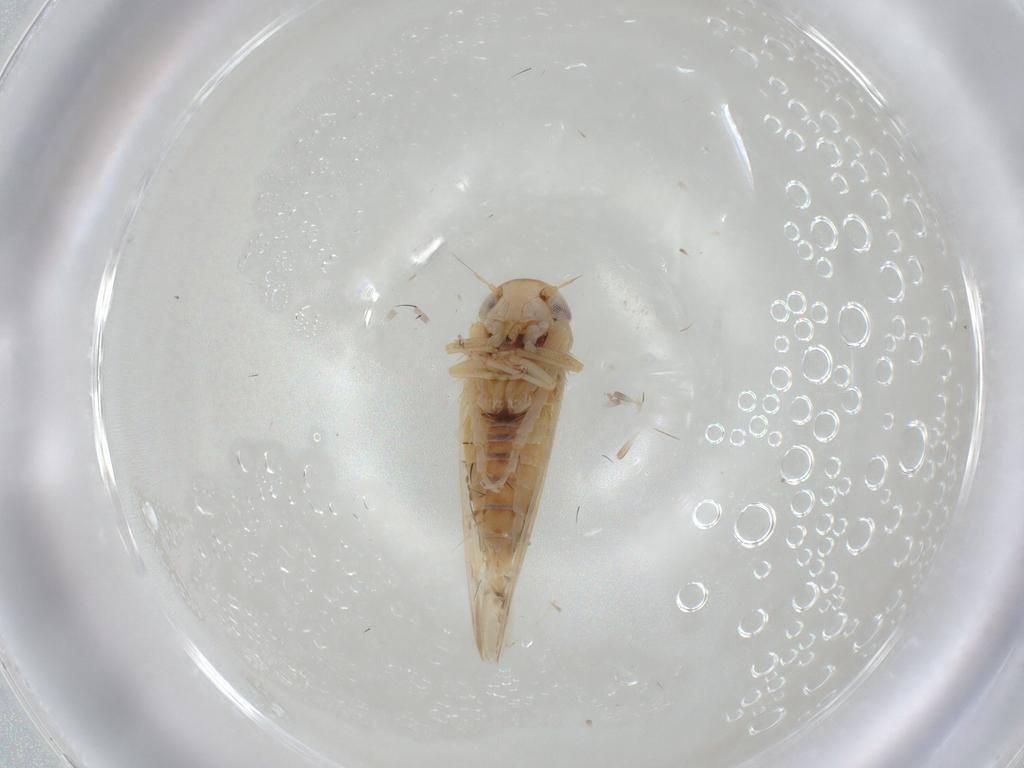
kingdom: Animalia
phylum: Arthropoda
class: Insecta
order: Hemiptera
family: Cicadellidae
